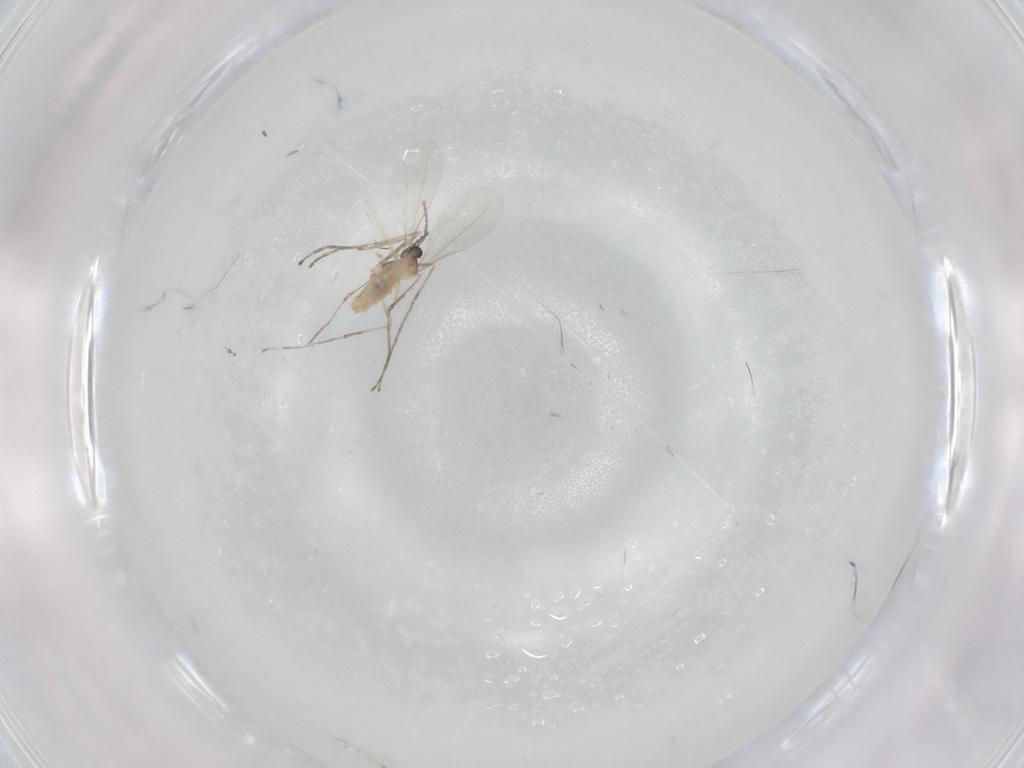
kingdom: Animalia
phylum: Arthropoda
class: Insecta
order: Diptera
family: Chironomidae
